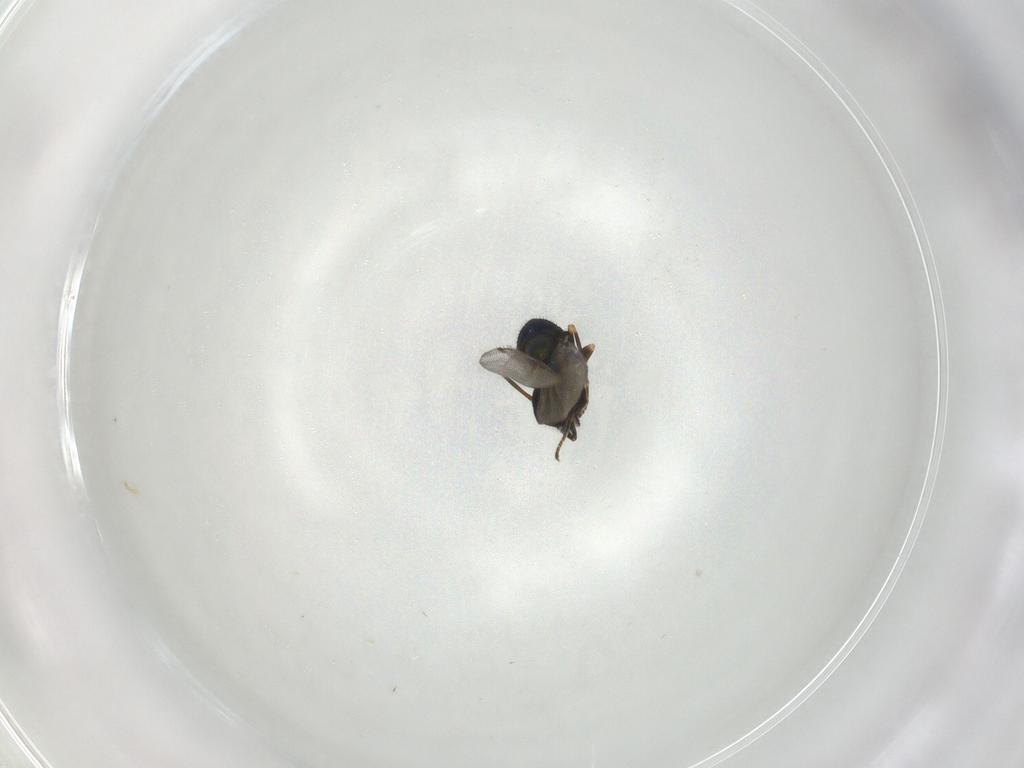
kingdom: Animalia
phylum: Arthropoda
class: Insecta
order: Hymenoptera
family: Encyrtidae
